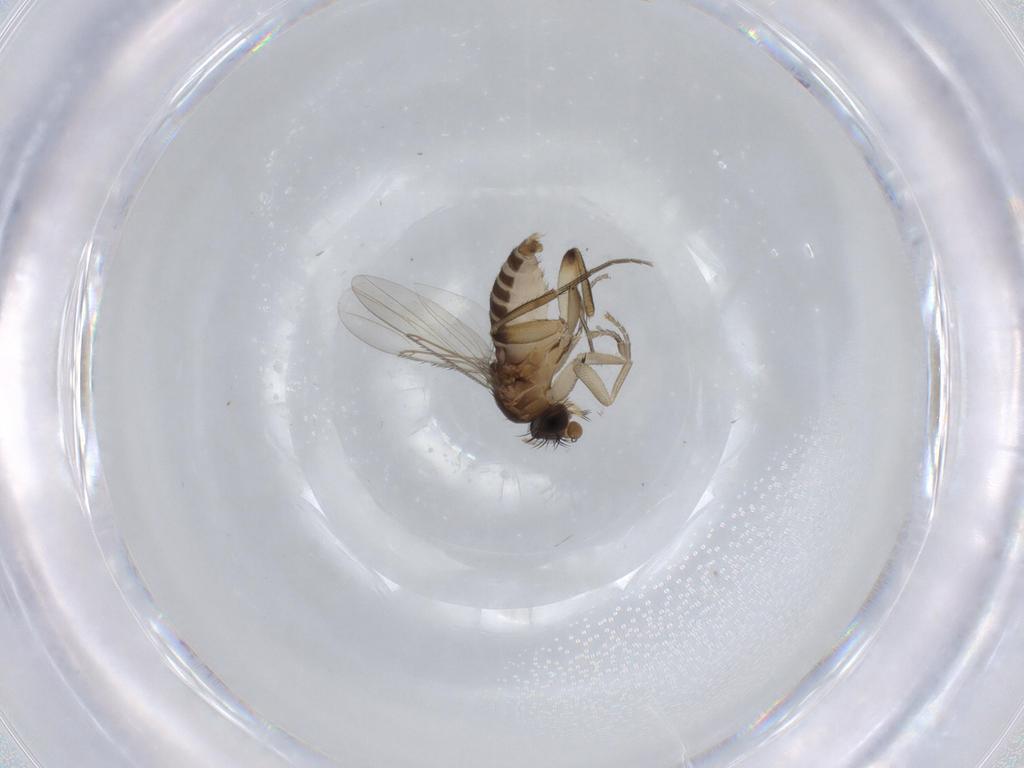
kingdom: Animalia
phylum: Arthropoda
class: Insecta
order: Diptera
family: Phoridae
